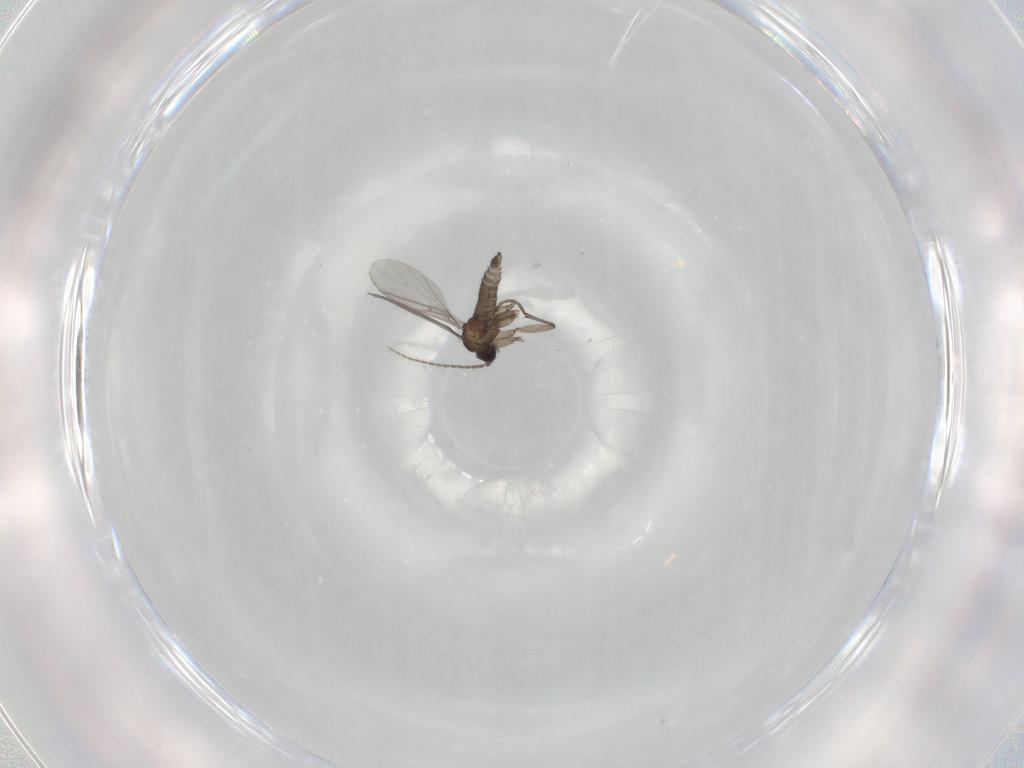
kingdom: Animalia
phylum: Arthropoda
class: Insecta
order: Diptera
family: Sciaridae
